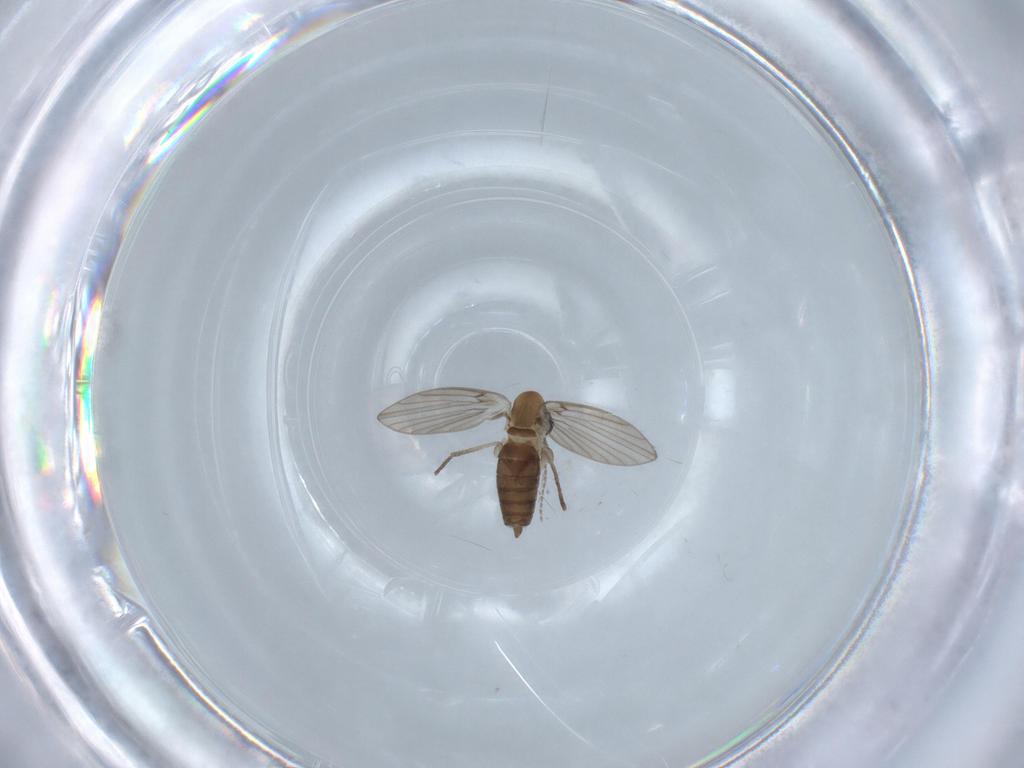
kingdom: Animalia
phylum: Arthropoda
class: Insecta
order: Diptera
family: Psychodidae
